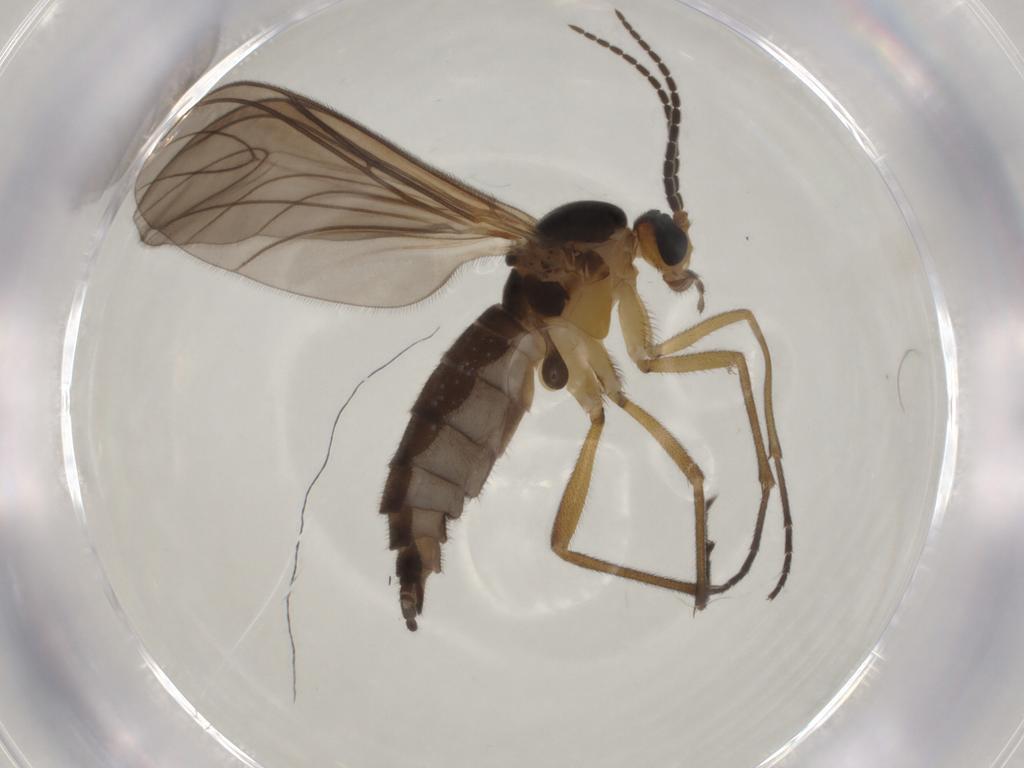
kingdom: Animalia
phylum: Arthropoda
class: Insecta
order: Diptera
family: Sciaridae
